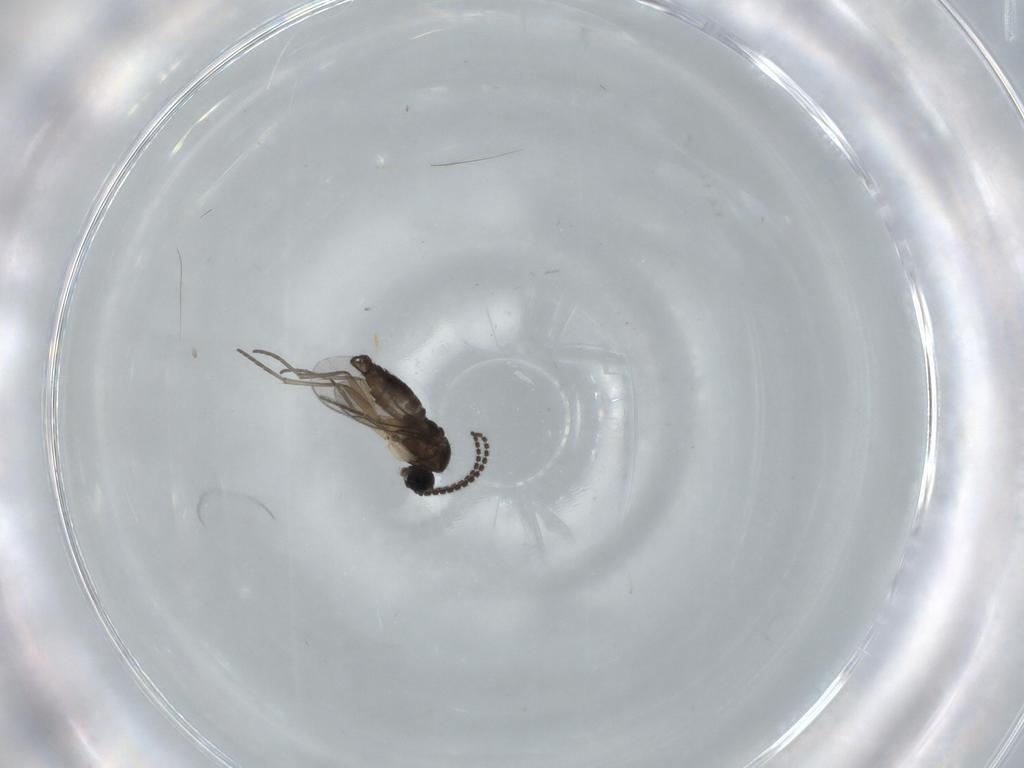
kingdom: Animalia
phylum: Arthropoda
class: Insecta
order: Diptera
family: Sciaridae
